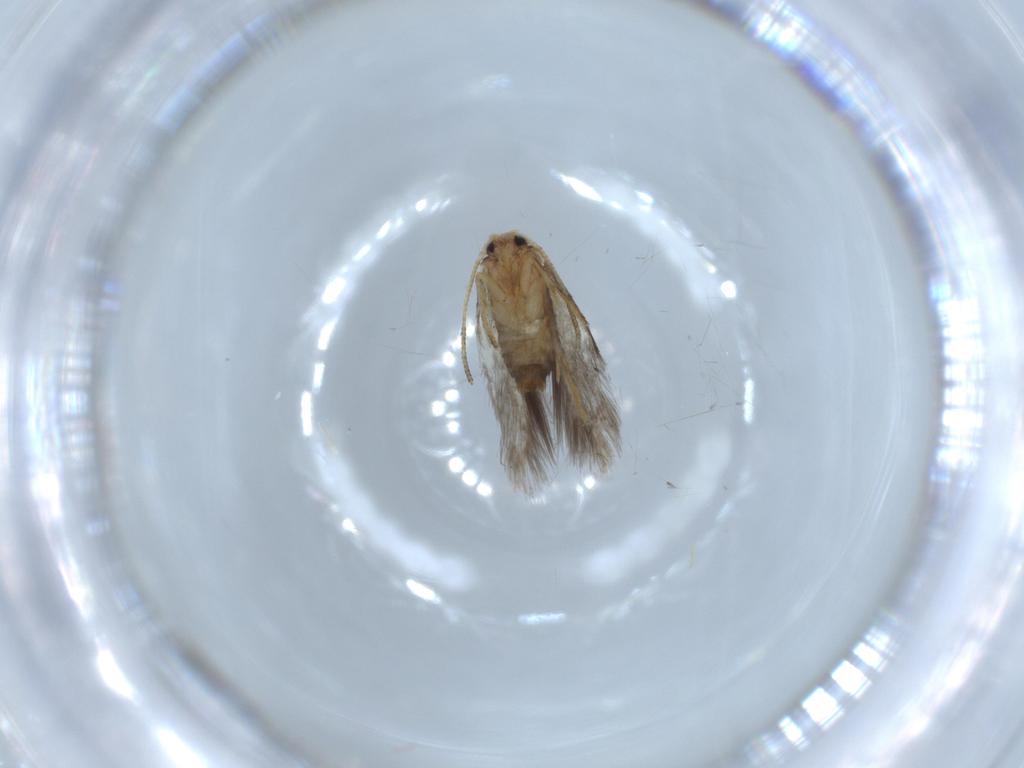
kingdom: Animalia
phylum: Arthropoda
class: Insecta
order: Lepidoptera
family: Nepticulidae
